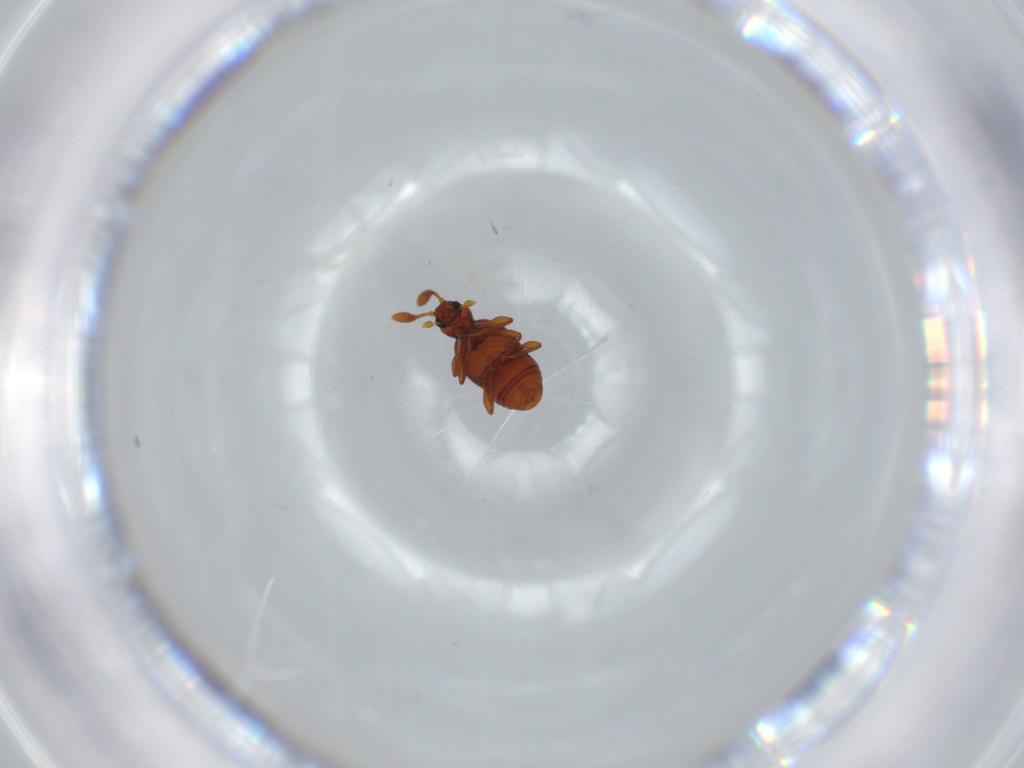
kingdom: Animalia
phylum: Arthropoda
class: Insecta
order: Coleoptera
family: Staphylinidae
